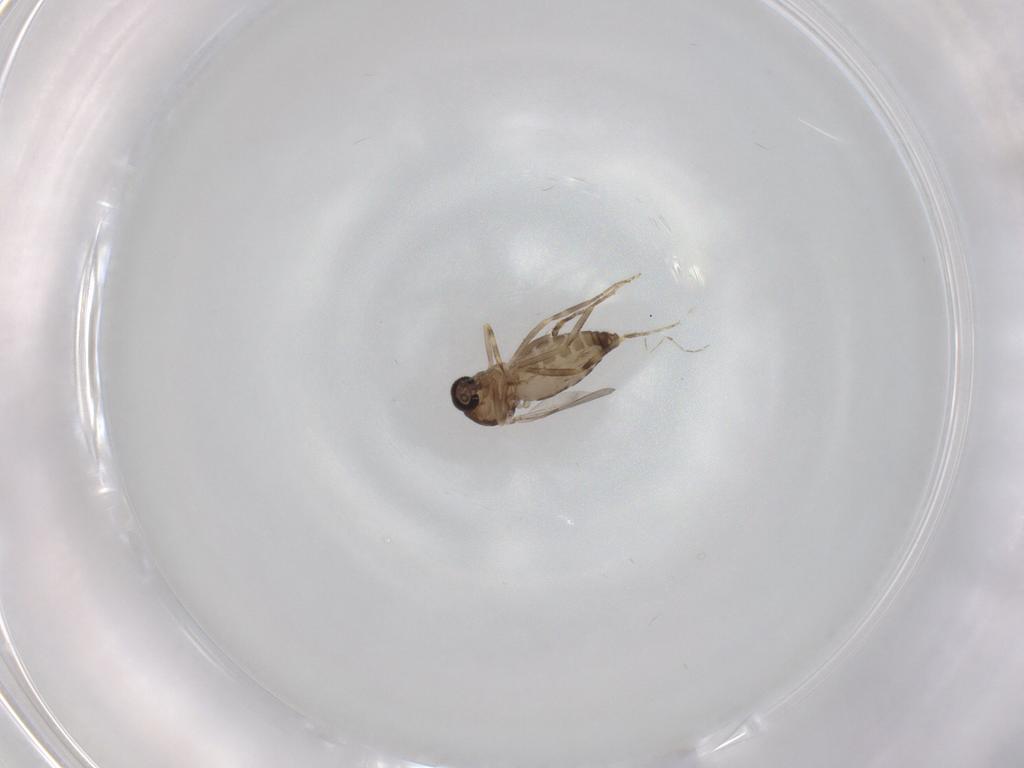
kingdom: Animalia
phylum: Arthropoda
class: Insecta
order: Diptera
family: Ceratopogonidae
